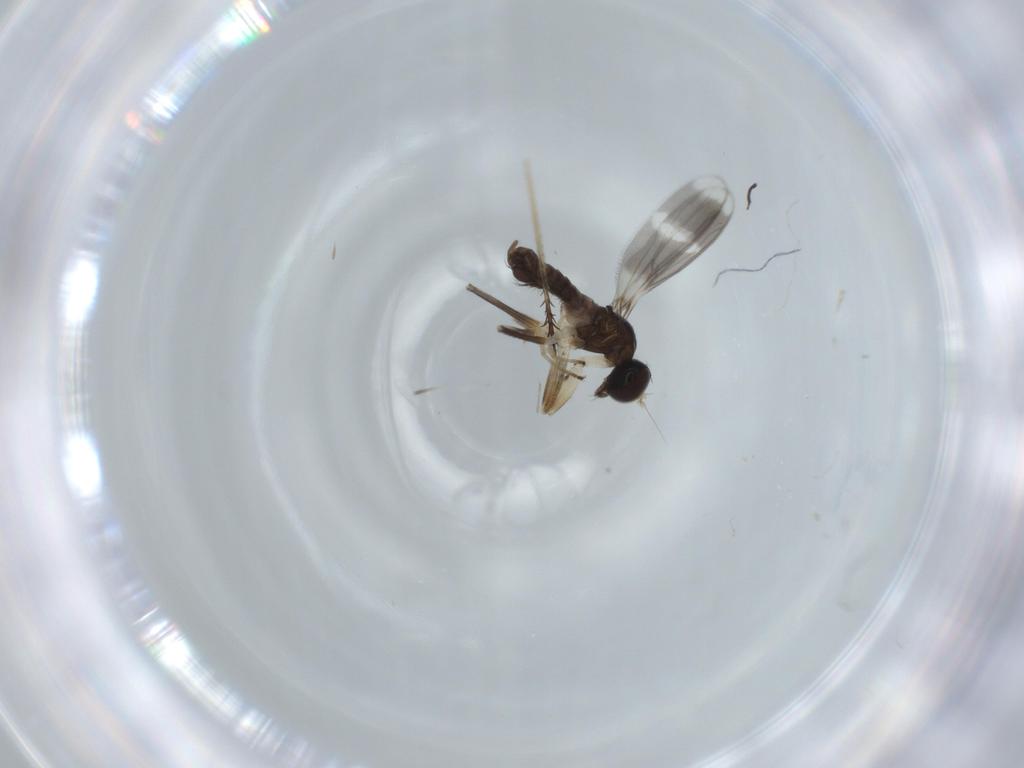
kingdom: Animalia
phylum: Arthropoda
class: Insecta
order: Diptera
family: Hybotidae
